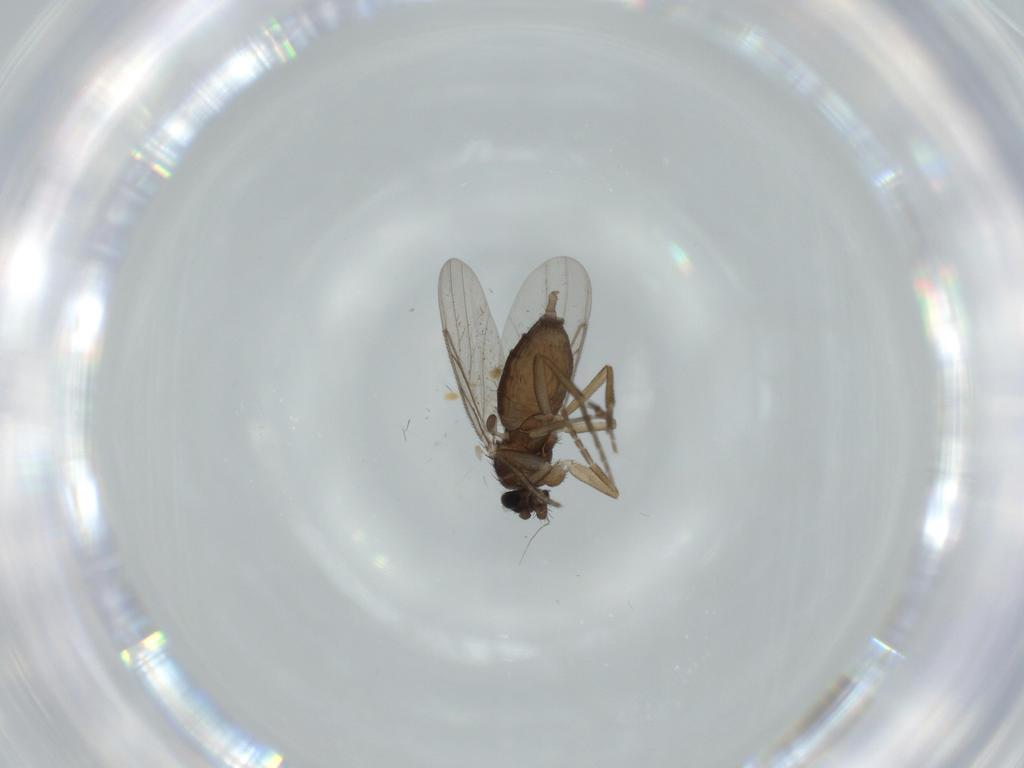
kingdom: Animalia
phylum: Arthropoda
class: Insecta
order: Diptera
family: Phoridae
